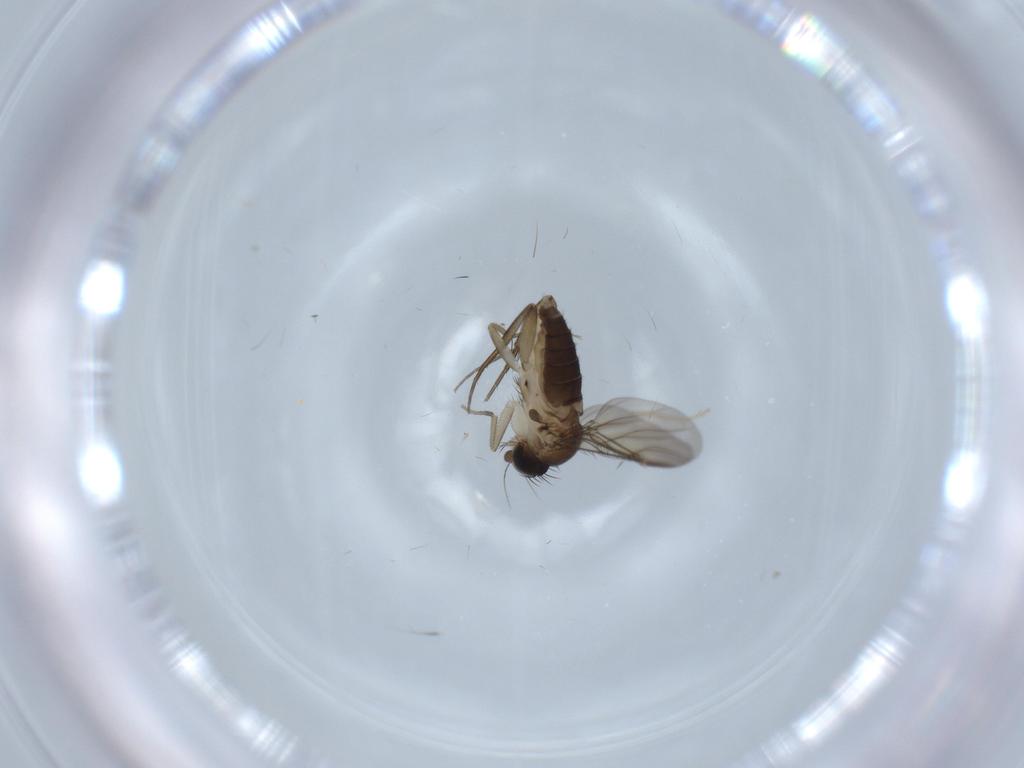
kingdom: Animalia
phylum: Arthropoda
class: Insecta
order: Diptera
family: Phoridae
